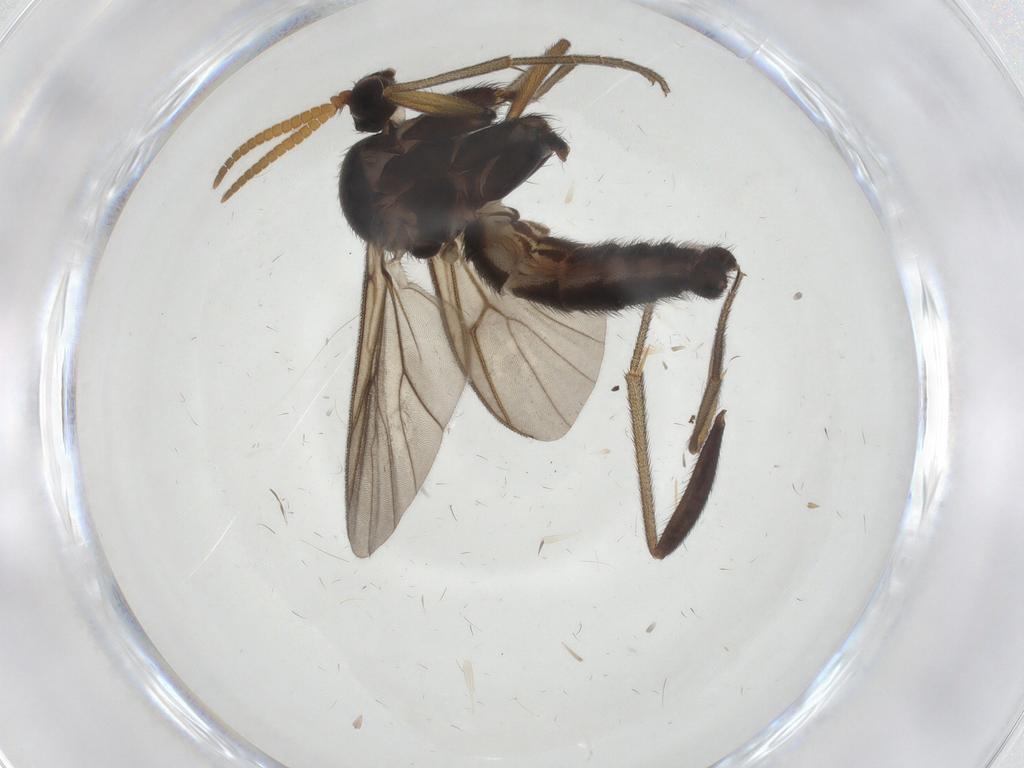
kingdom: Animalia
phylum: Arthropoda
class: Insecta
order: Diptera
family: Mycetophilidae
